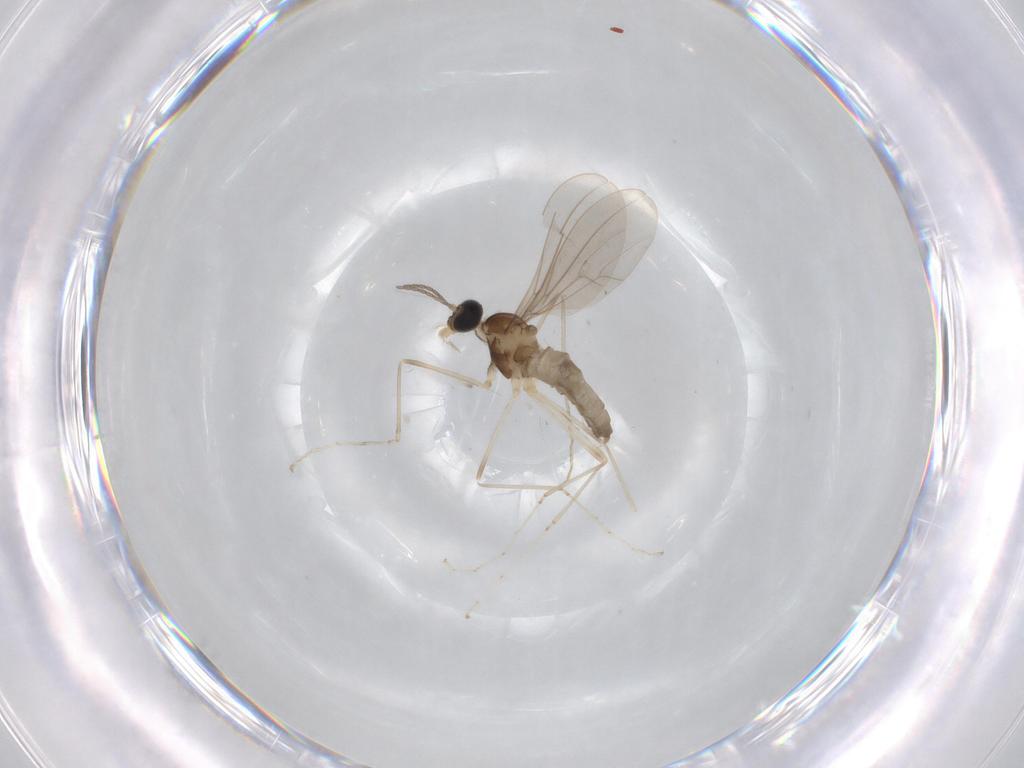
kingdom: Animalia
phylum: Arthropoda
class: Insecta
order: Diptera
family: Cecidomyiidae
